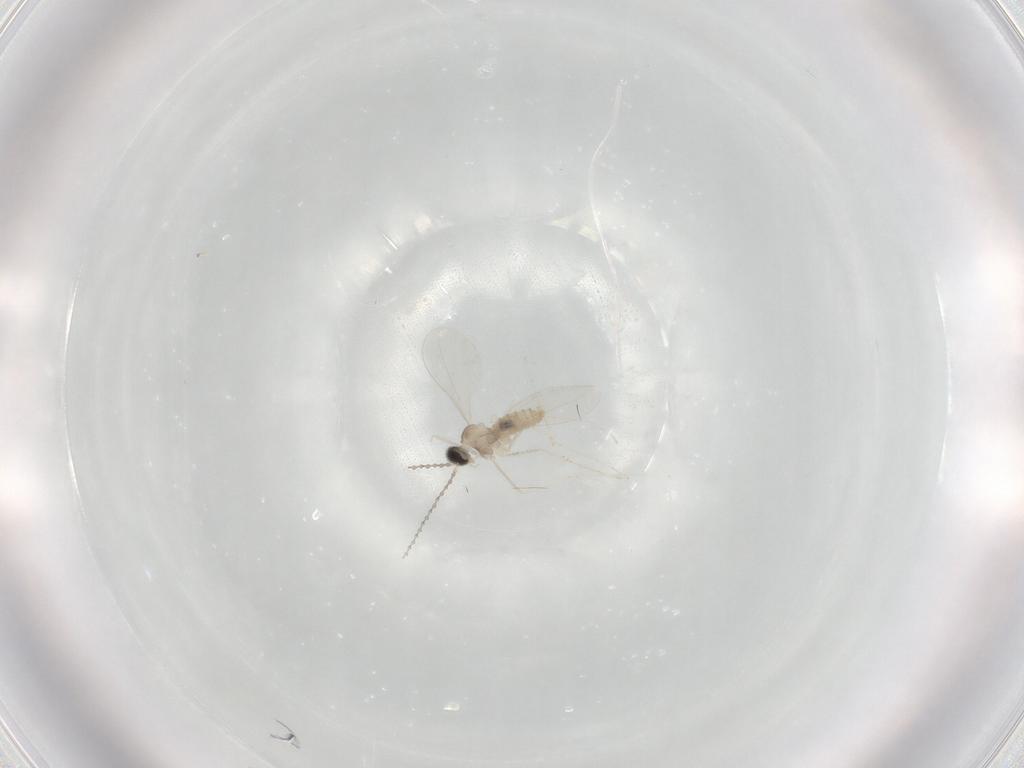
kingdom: Animalia
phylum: Arthropoda
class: Insecta
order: Diptera
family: Cecidomyiidae
